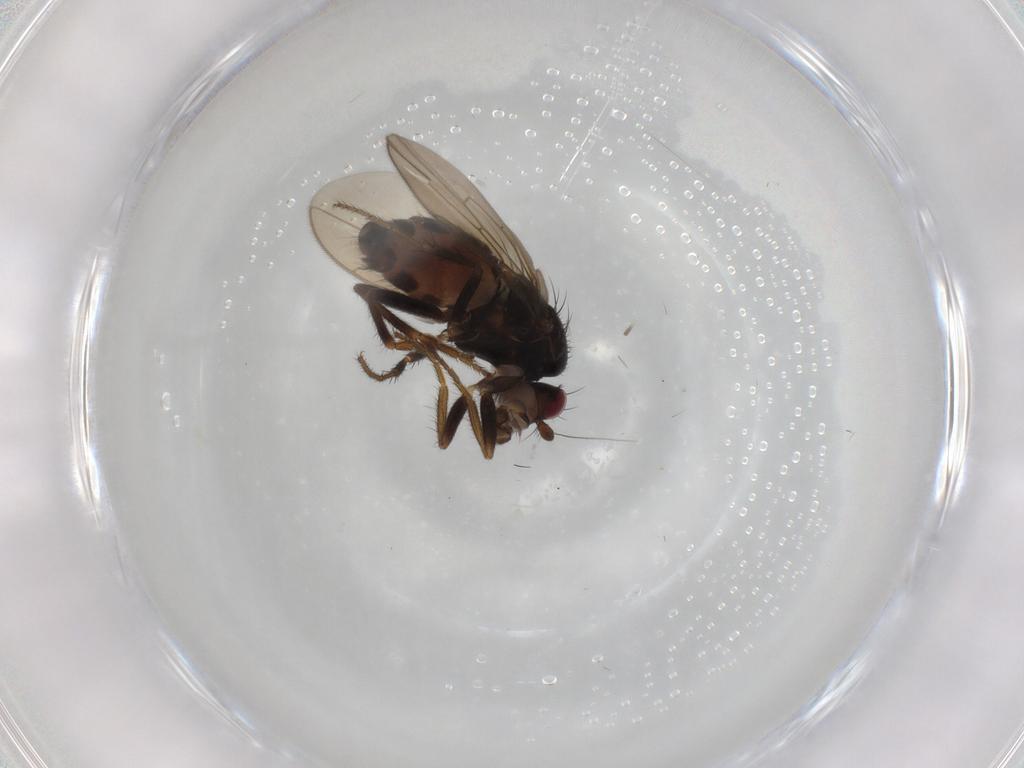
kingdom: Animalia
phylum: Arthropoda
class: Insecta
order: Diptera
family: Sphaeroceridae
